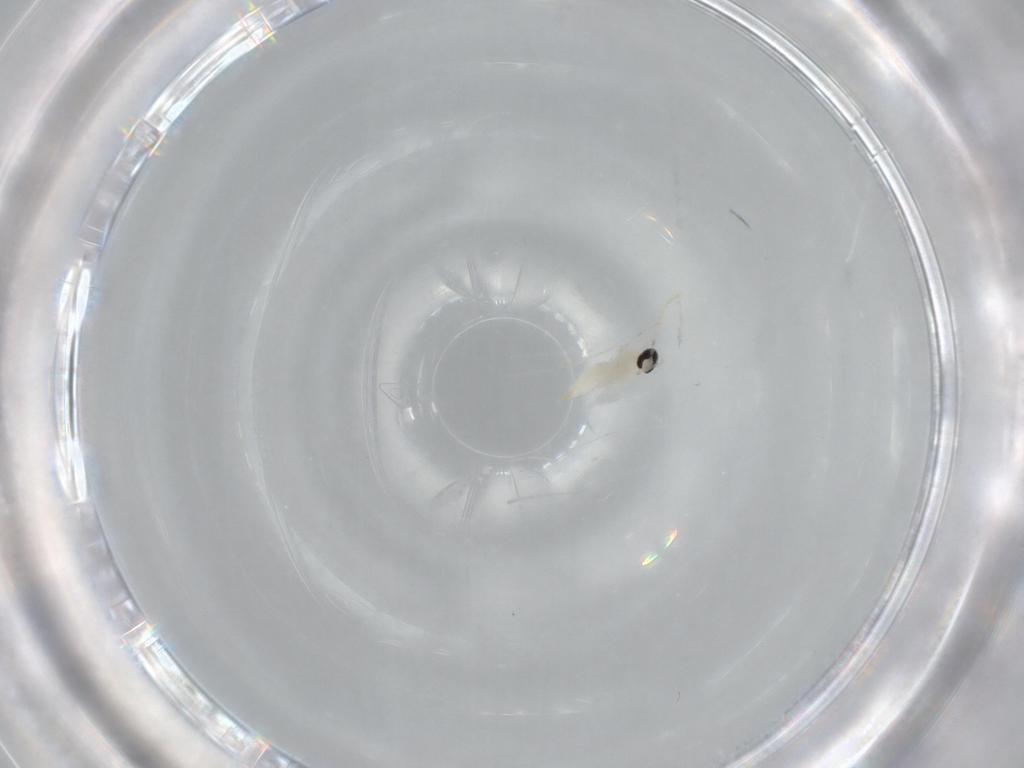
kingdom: Animalia
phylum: Arthropoda
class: Insecta
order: Diptera
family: Cecidomyiidae
